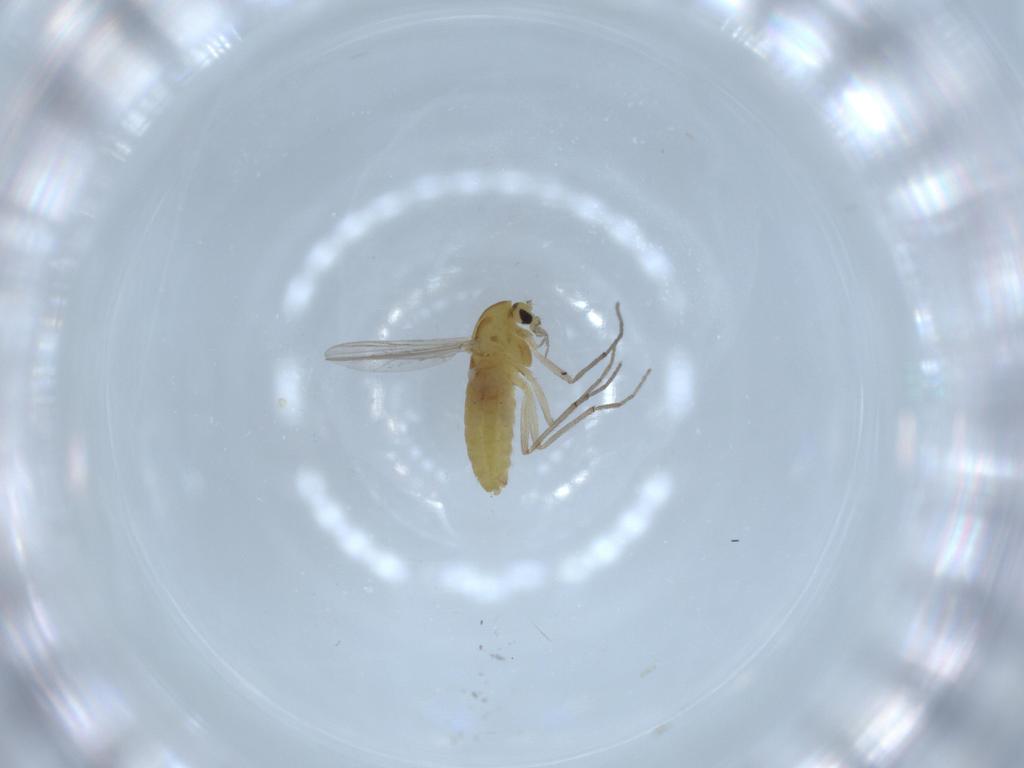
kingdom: Animalia
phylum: Arthropoda
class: Insecta
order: Diptera
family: Chironomidae
